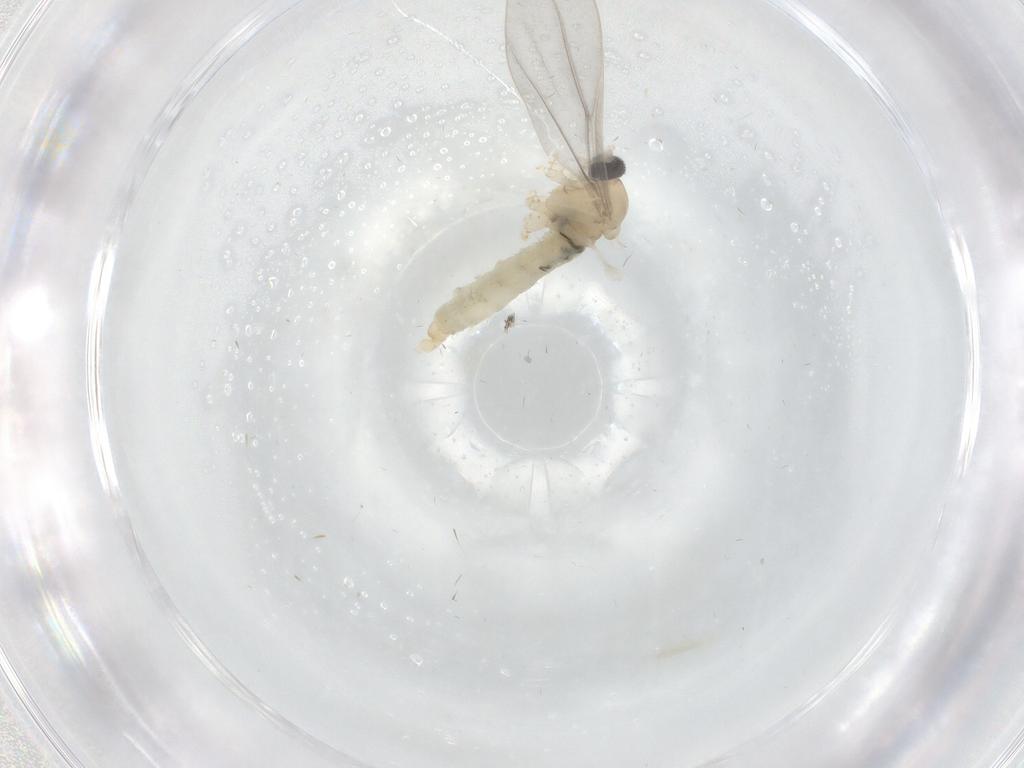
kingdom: Animalia
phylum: Arthropoda
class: Insecta
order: Diptera
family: Cecidomyiidae
